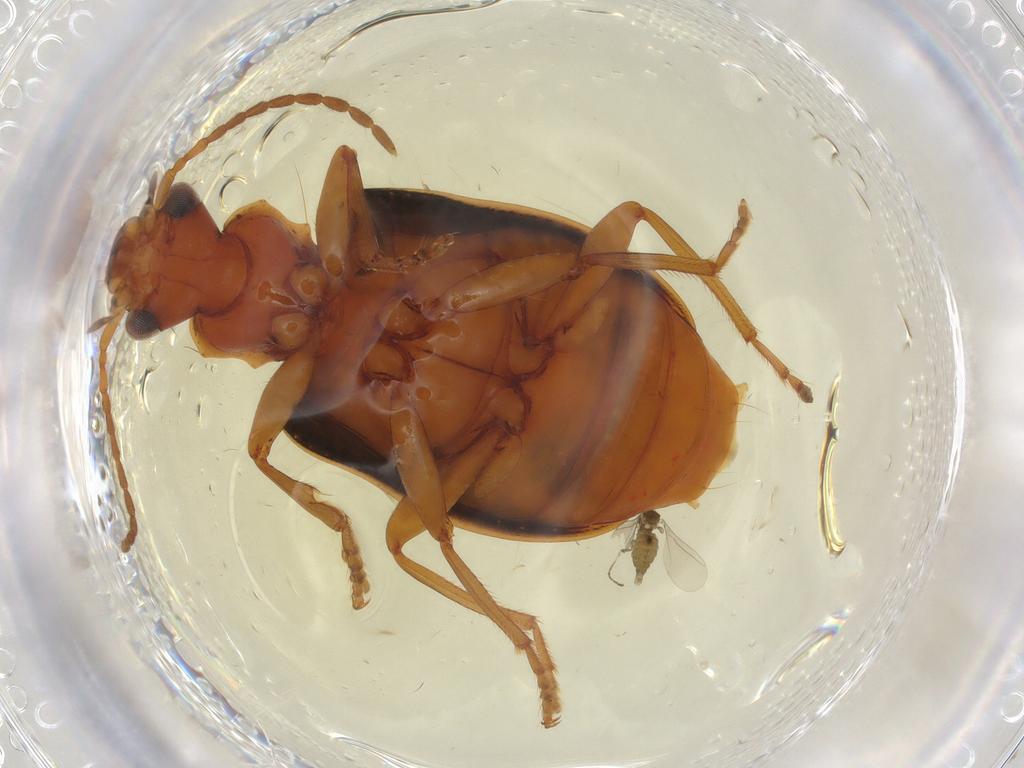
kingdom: Animalia
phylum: Arthropoda
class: Insecta
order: Coleoptera
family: Carabidae
